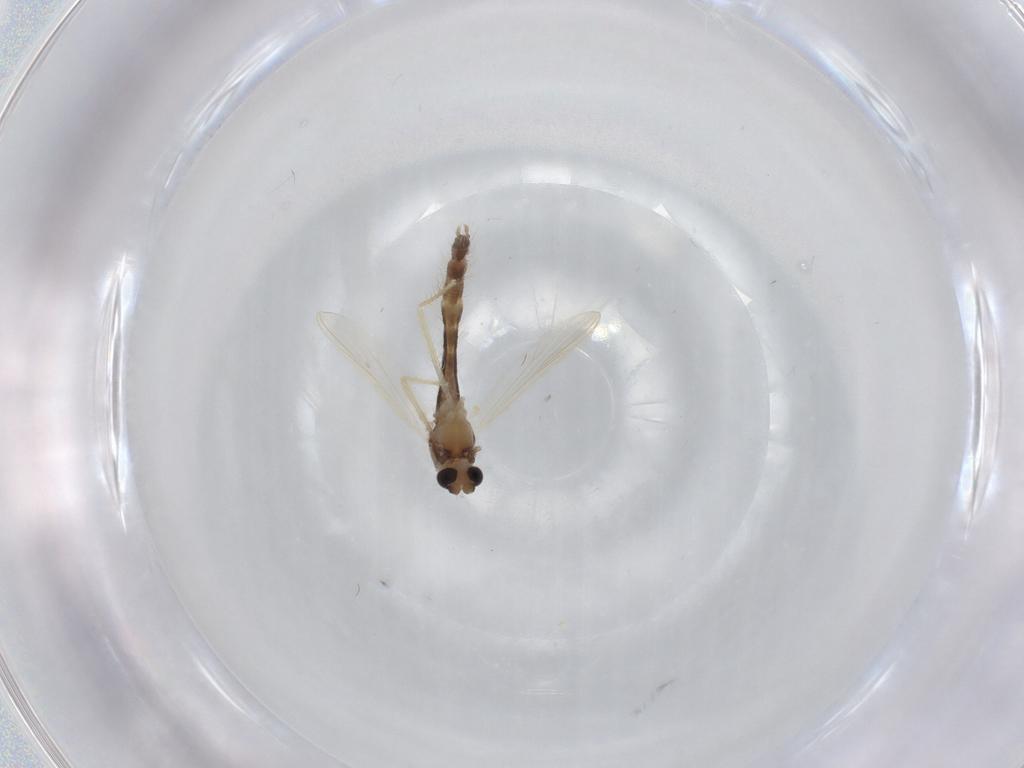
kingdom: Animalia
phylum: Arthropoda
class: Insecta
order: Diptera
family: Chironomidae
